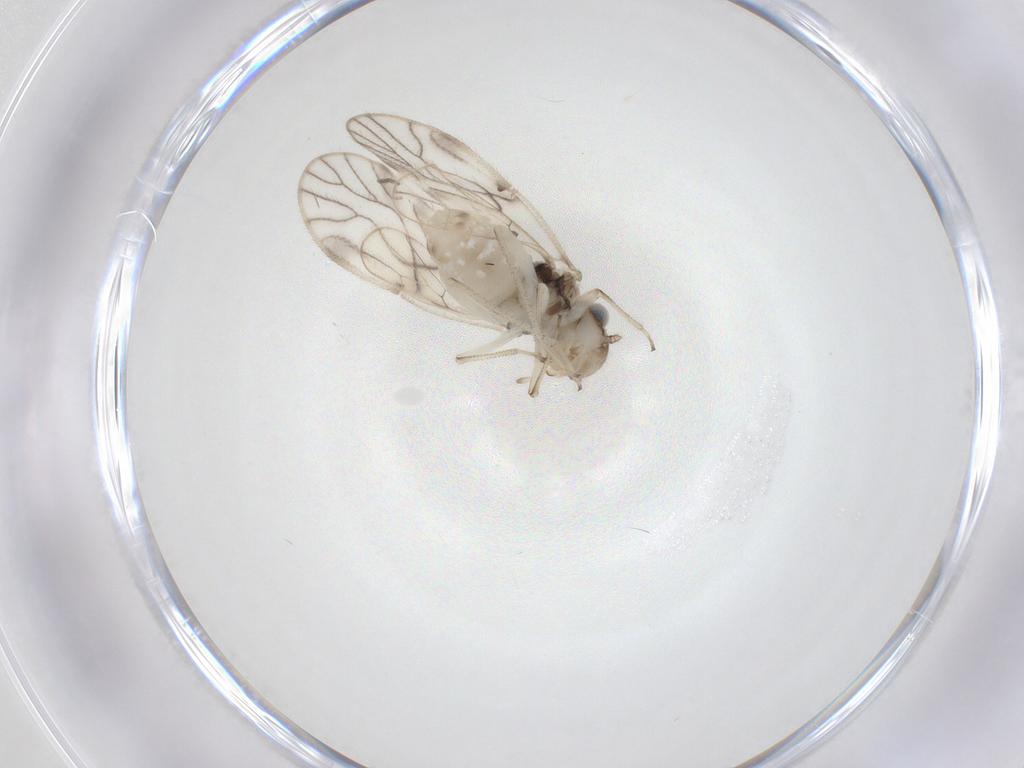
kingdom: Animalia
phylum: Arthropoda
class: Insecta
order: Psocodea
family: Caeciliusidae
